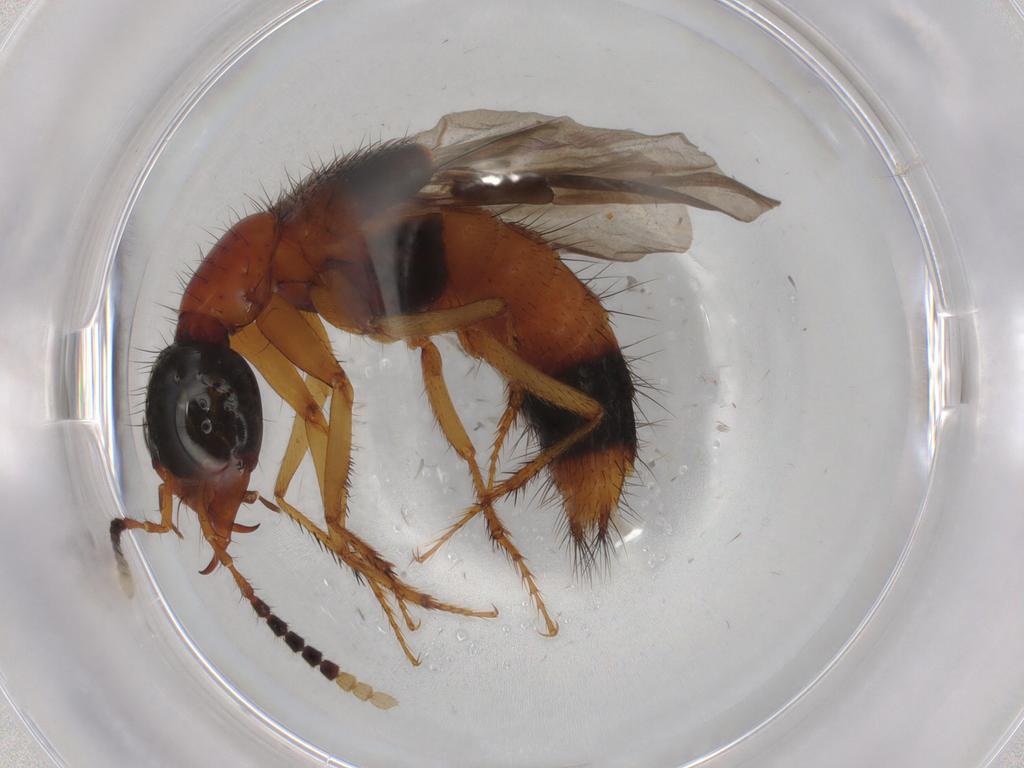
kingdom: Animalia
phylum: Arthropoda
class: Insecta
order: Coleoptera
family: Staphylinidae
